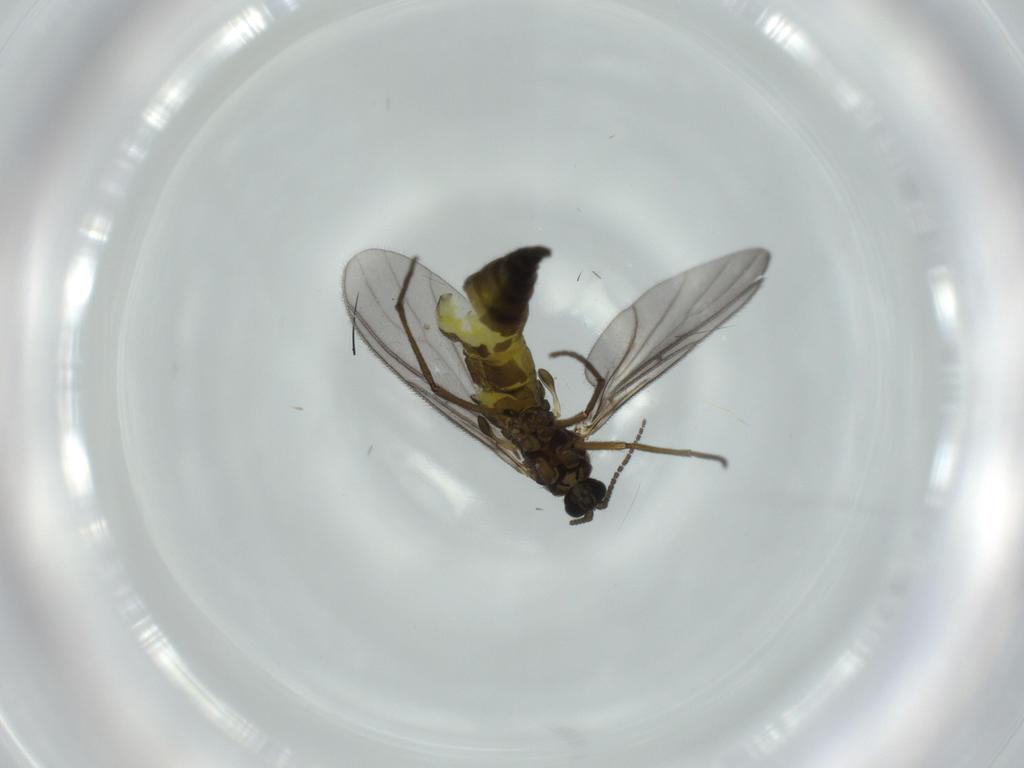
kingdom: Animalia
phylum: Arthropoda
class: Insecta
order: Diptera
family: Sciaridae
